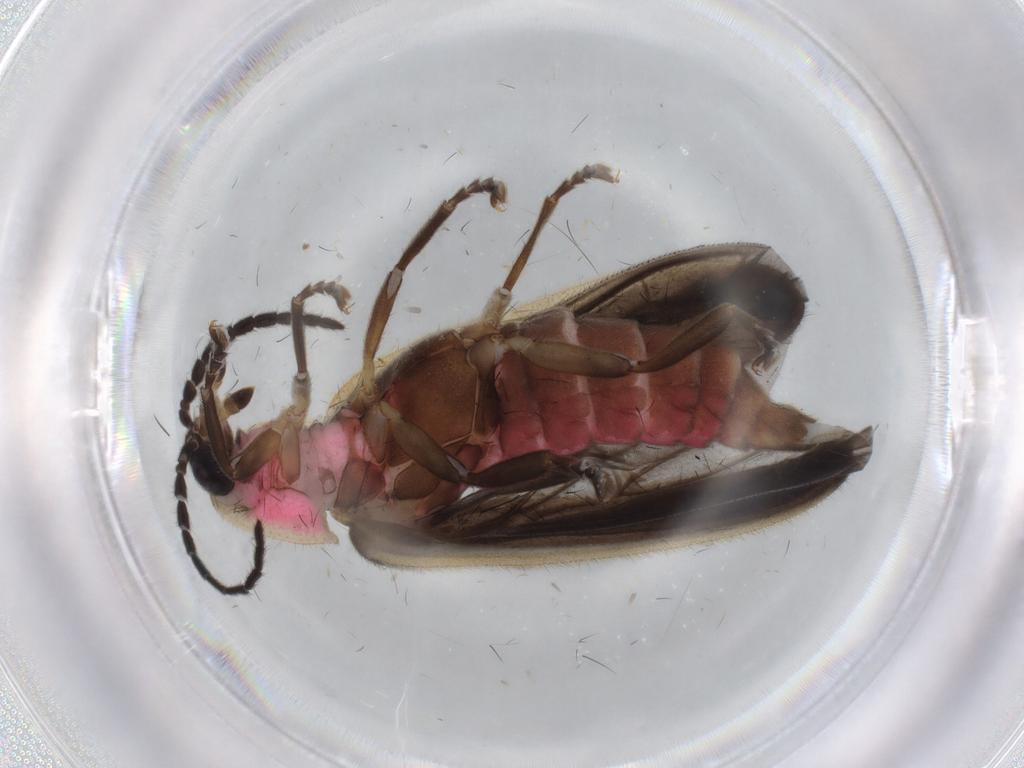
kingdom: Animalia
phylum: Arthropoda
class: Insecta
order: Coleoptera
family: Lampyridae
